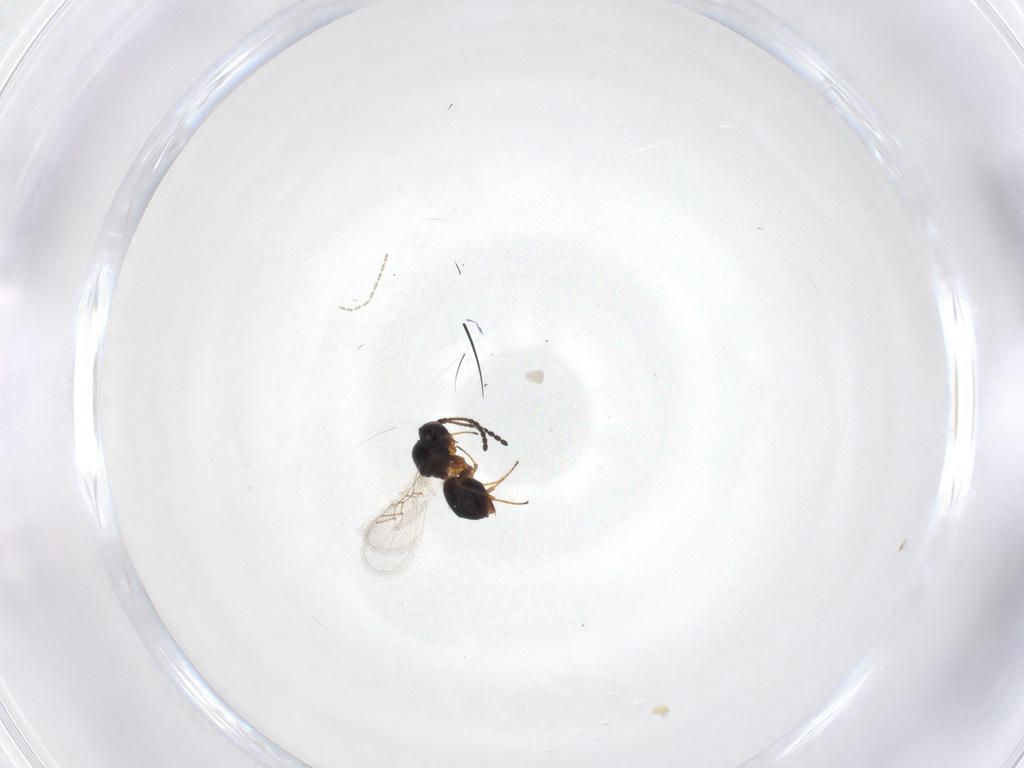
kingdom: Animalia
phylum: Arthropoda
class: Insecta
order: Hymenoptera
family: Figitidae
